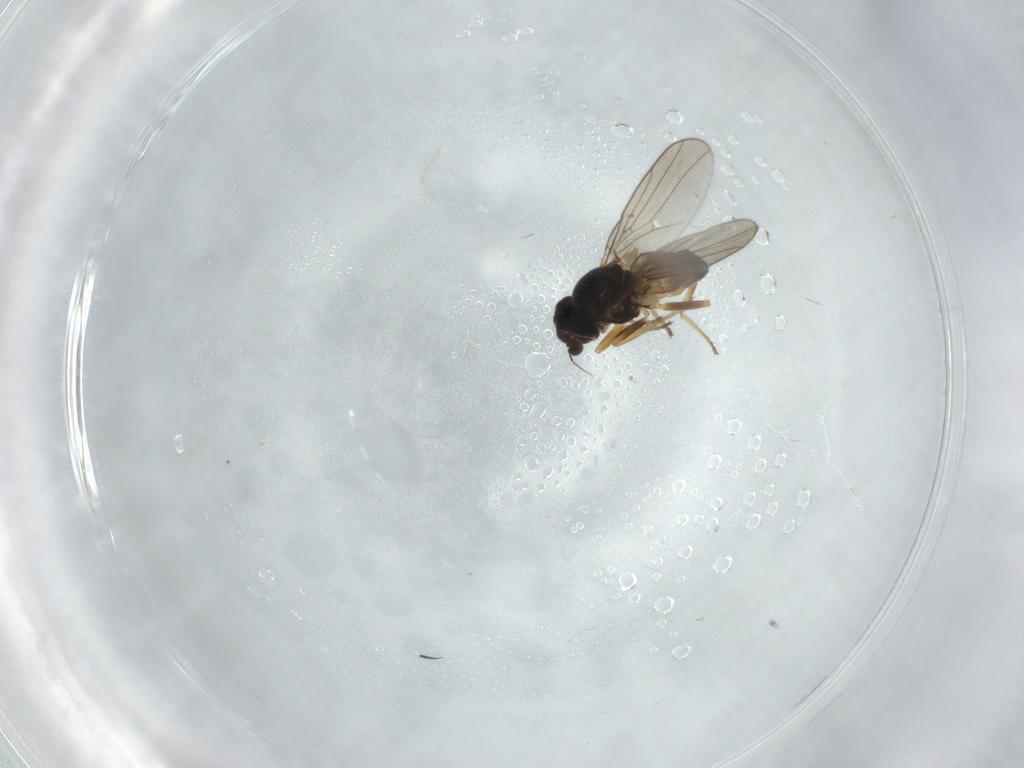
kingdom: Animalia
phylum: Arthropoda
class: Insecta
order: Diptera
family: Chloropidae
